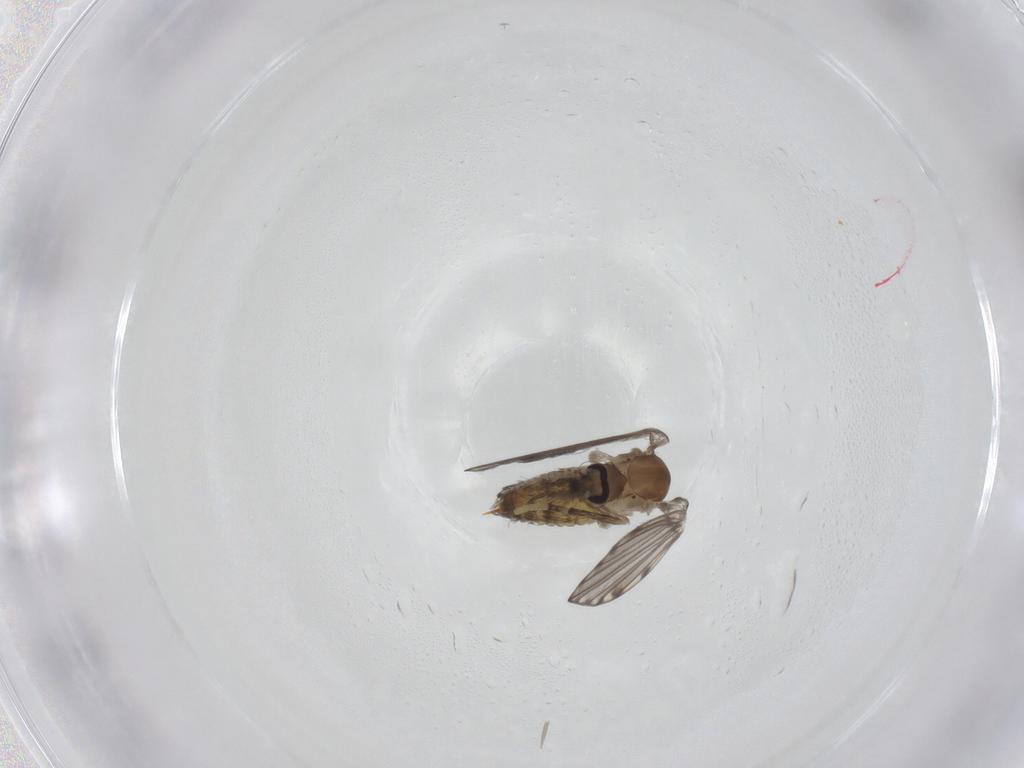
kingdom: Animalia
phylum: Arthropoda
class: Insecta
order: Diptera
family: Psychodidae
